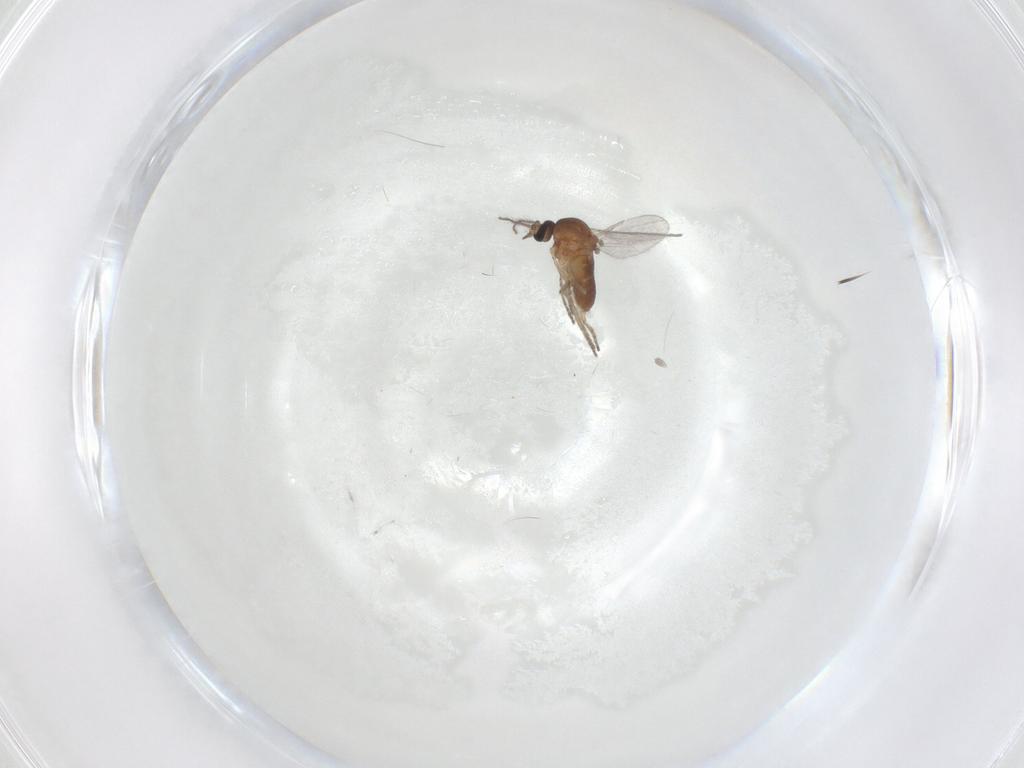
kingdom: Animalia
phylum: Arthropoda
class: Insecta
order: Diptera
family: Ceratopogonidae
